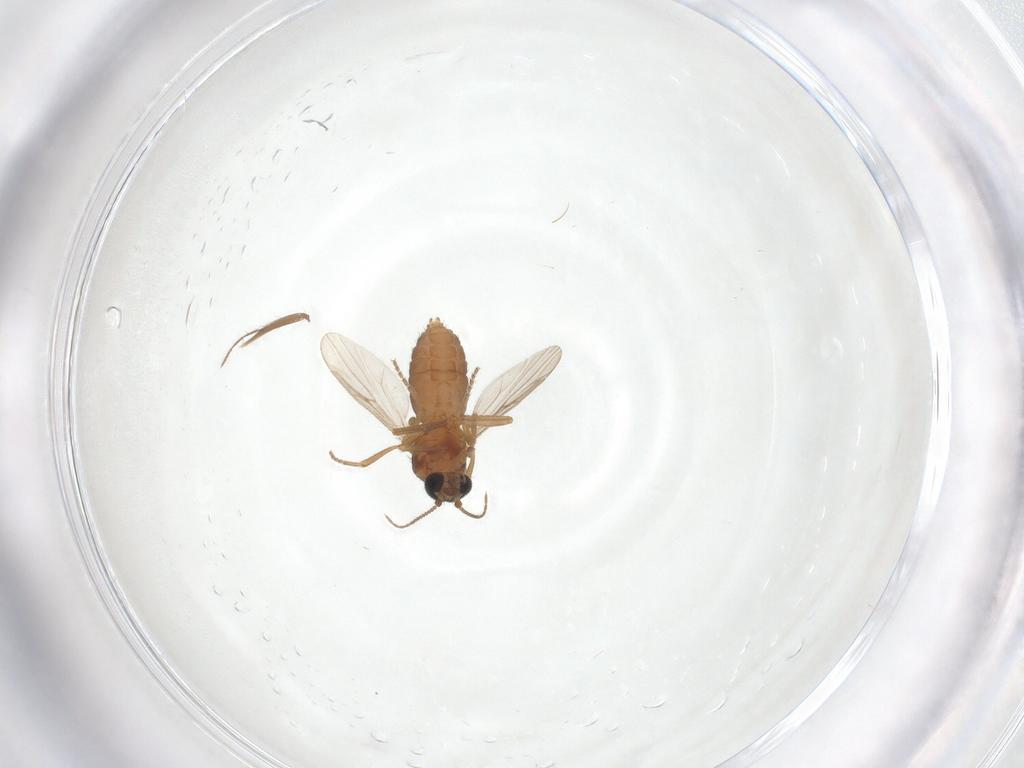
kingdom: Animalia
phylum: Arthropoda
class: Insecta
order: Diptera
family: Ceratopogonidae
